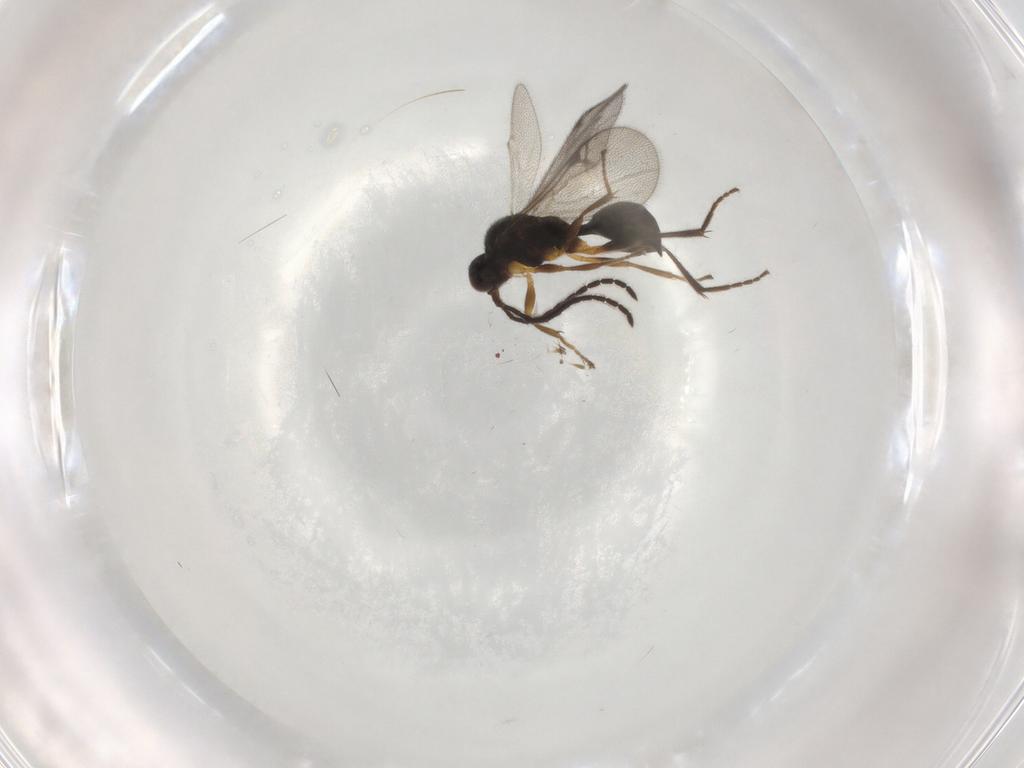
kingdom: Animalia
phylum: Arthropoda
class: Insecta
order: Hymenoptera
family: Proctotrupidae
